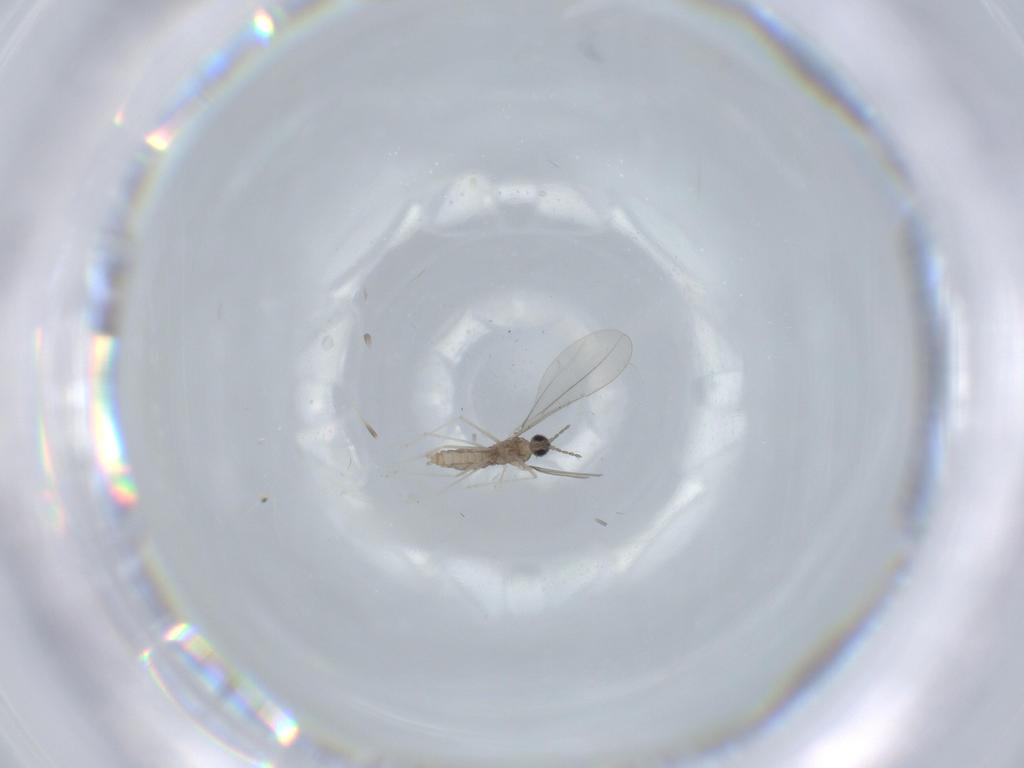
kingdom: Animalia
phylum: Arthropoda
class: Insecta
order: Diptera
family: Cecidomyiidae
